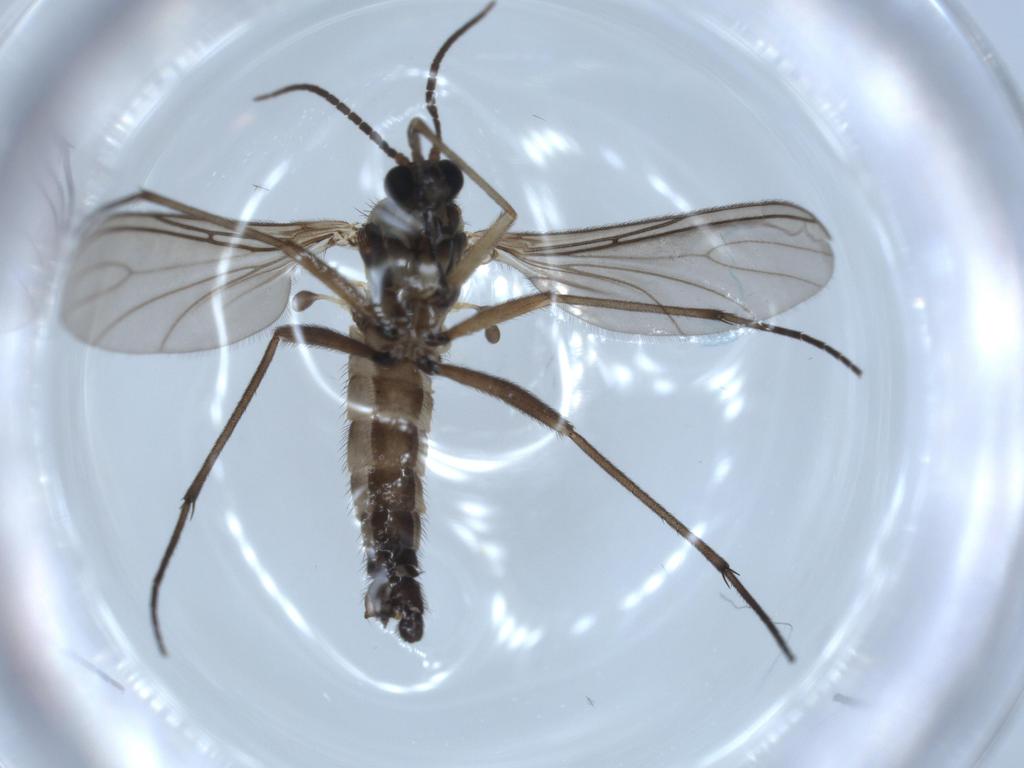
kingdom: Animalia
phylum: Arthropoda
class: Insecta
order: Diptera
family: Sciaridae
